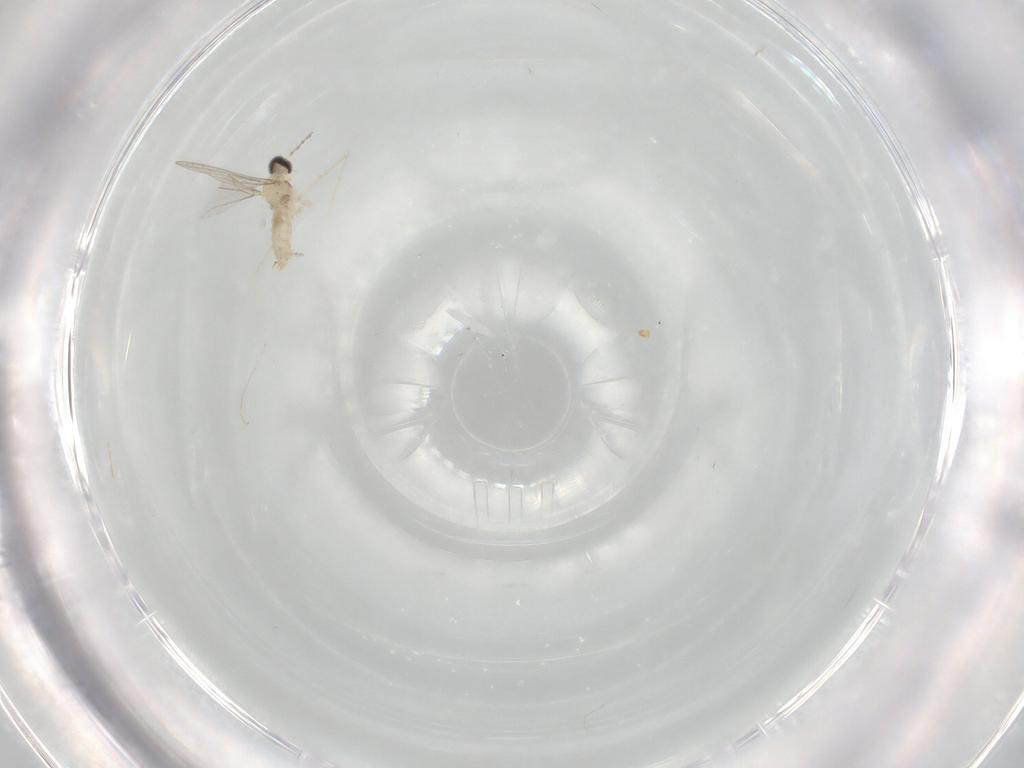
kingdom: Animalia
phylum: Arthropoda
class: Insecta
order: Diptera
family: Cecidomyiidae
